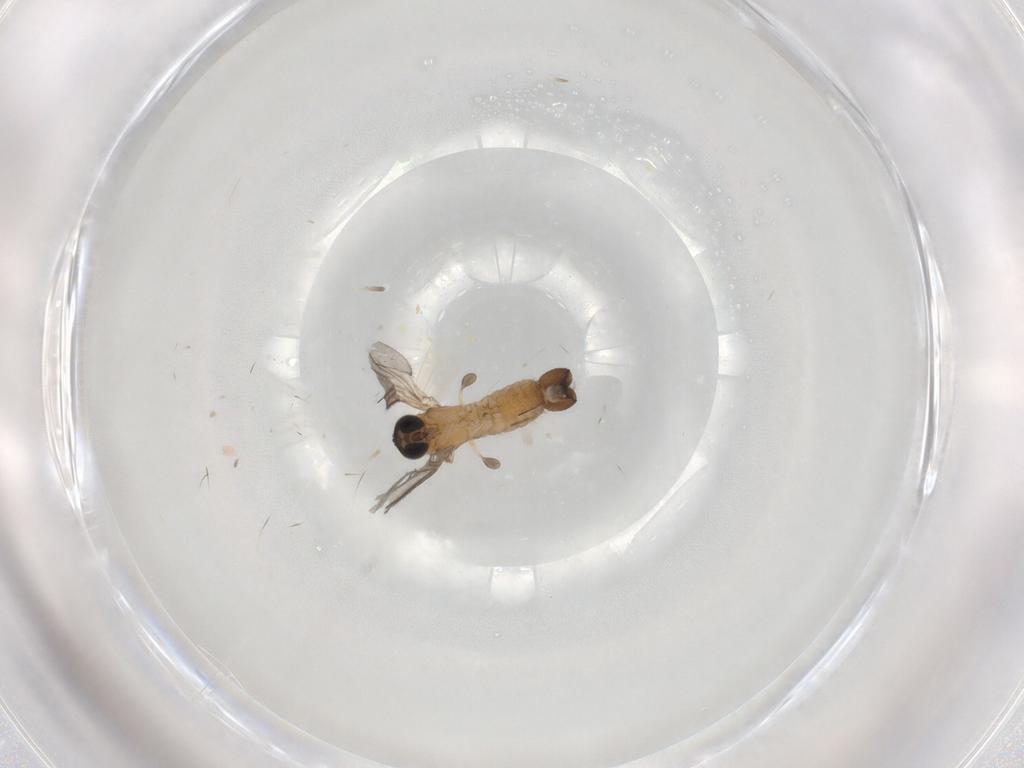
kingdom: Animalia
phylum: Arthropoda
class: Insecta
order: Diptera
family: Sciaridae
